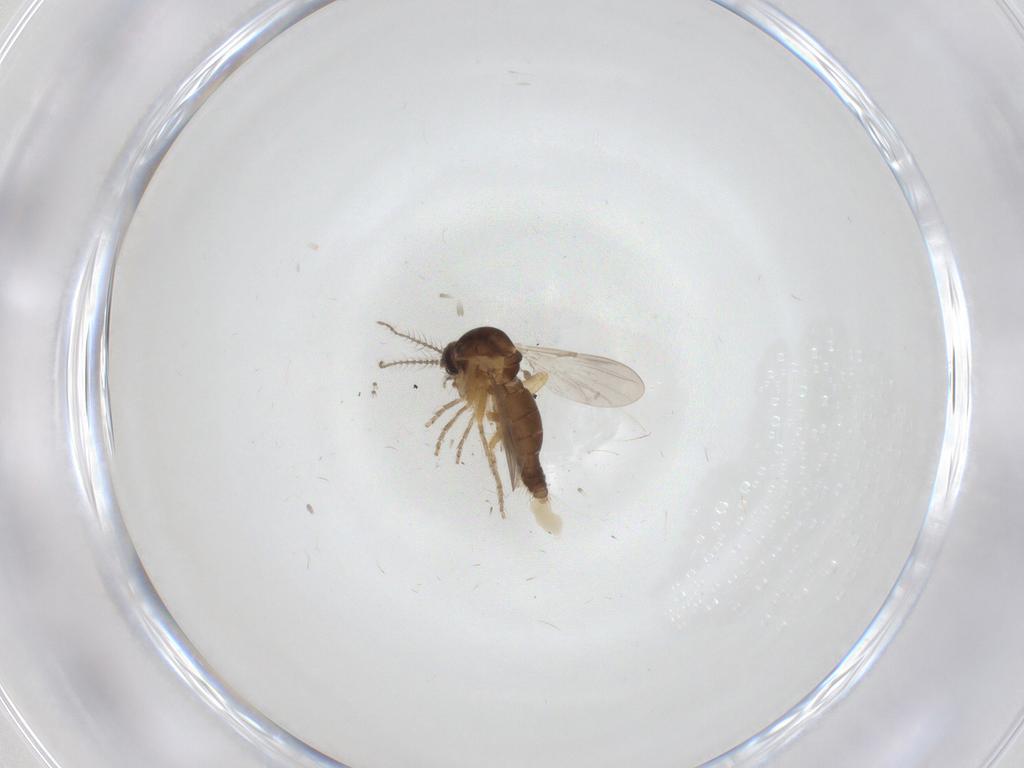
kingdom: Animalia
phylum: Arthropoda
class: Insecta
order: Diptera
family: Ceratopogonidae
